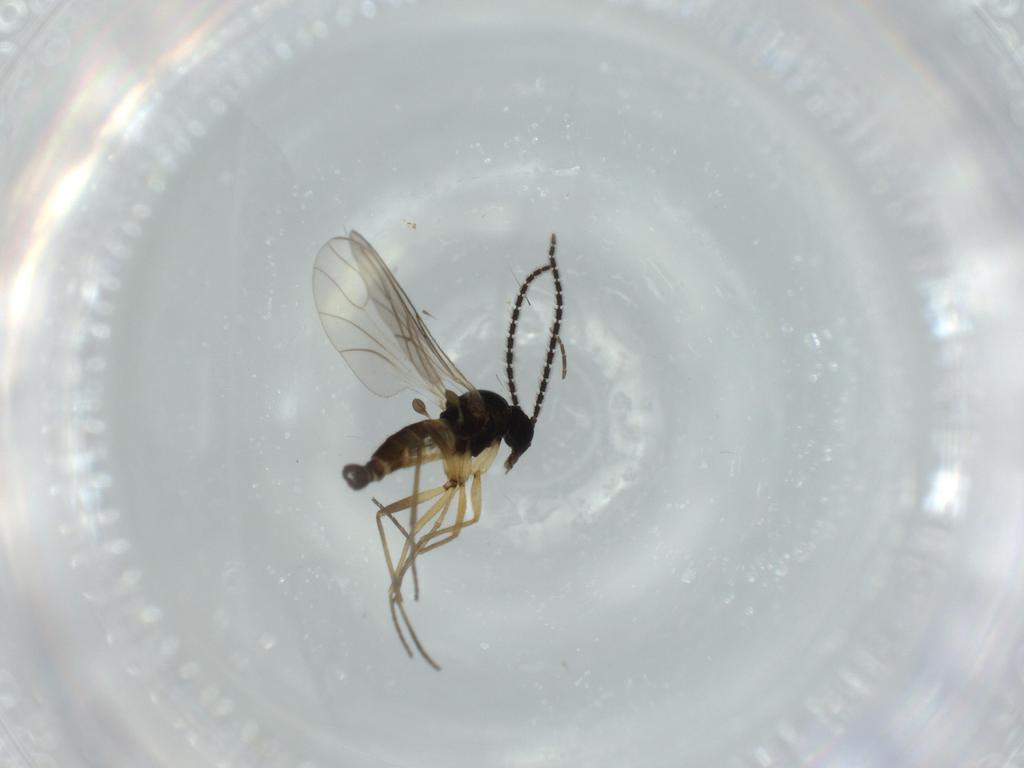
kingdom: Animalia
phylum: Arthropoda
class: Insecta
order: Diptera
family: Sciaridae
